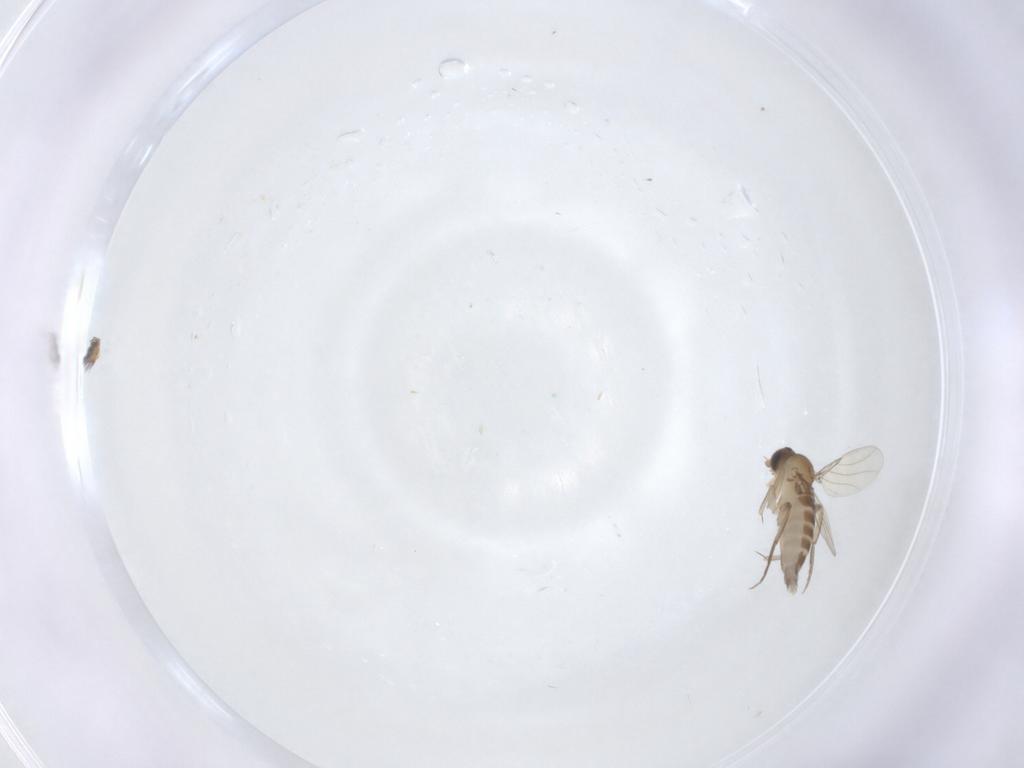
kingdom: Animalia
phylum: Arthropoda
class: Insecta
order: Diptera
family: Phoridae
